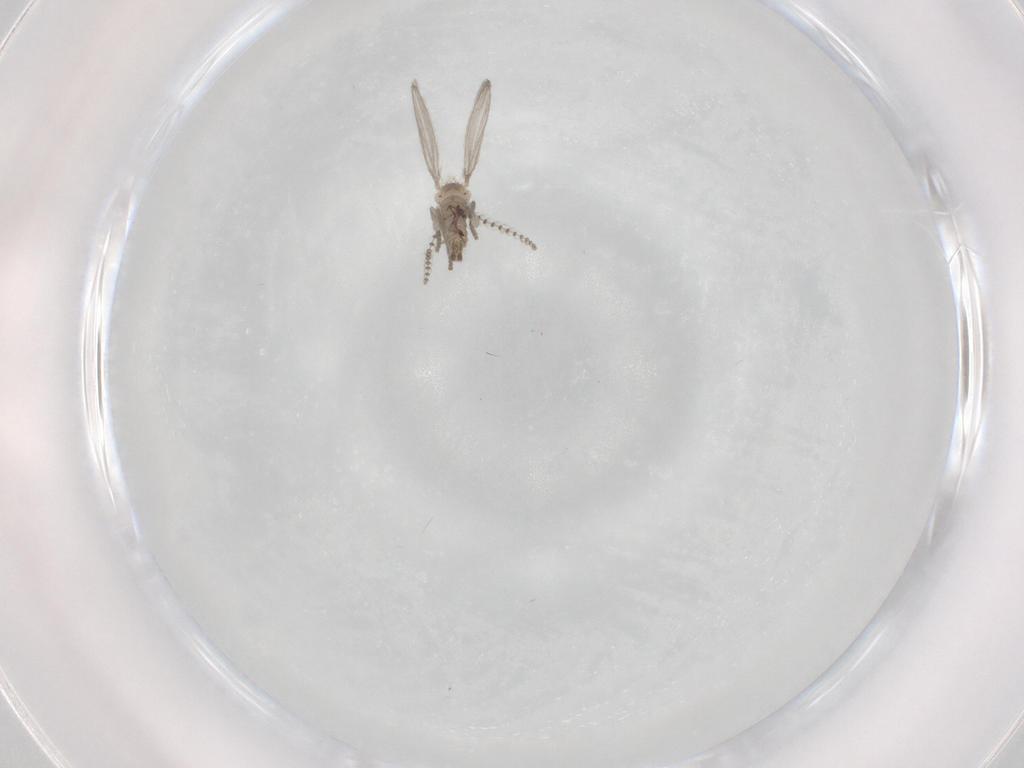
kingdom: Animalia
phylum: Arthropoda
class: Insecta
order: Diptera
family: Psychodidae
